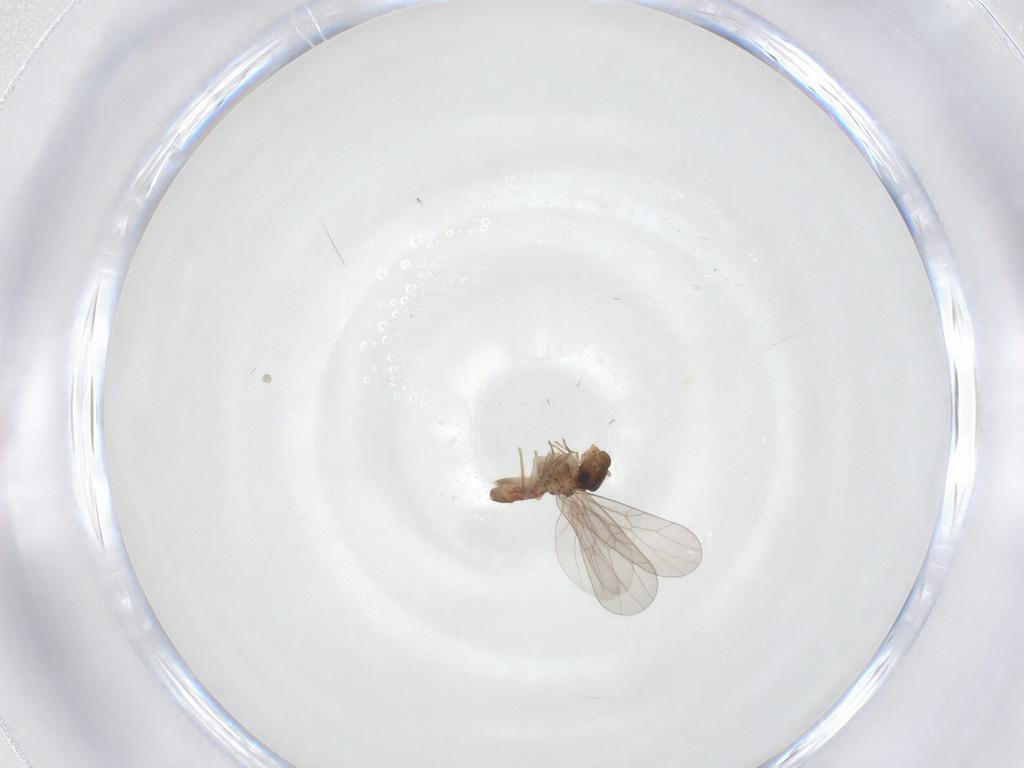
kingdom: Animalia
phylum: Arthropoda
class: Insecta
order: Psocodea
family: Lepidopsocidae
